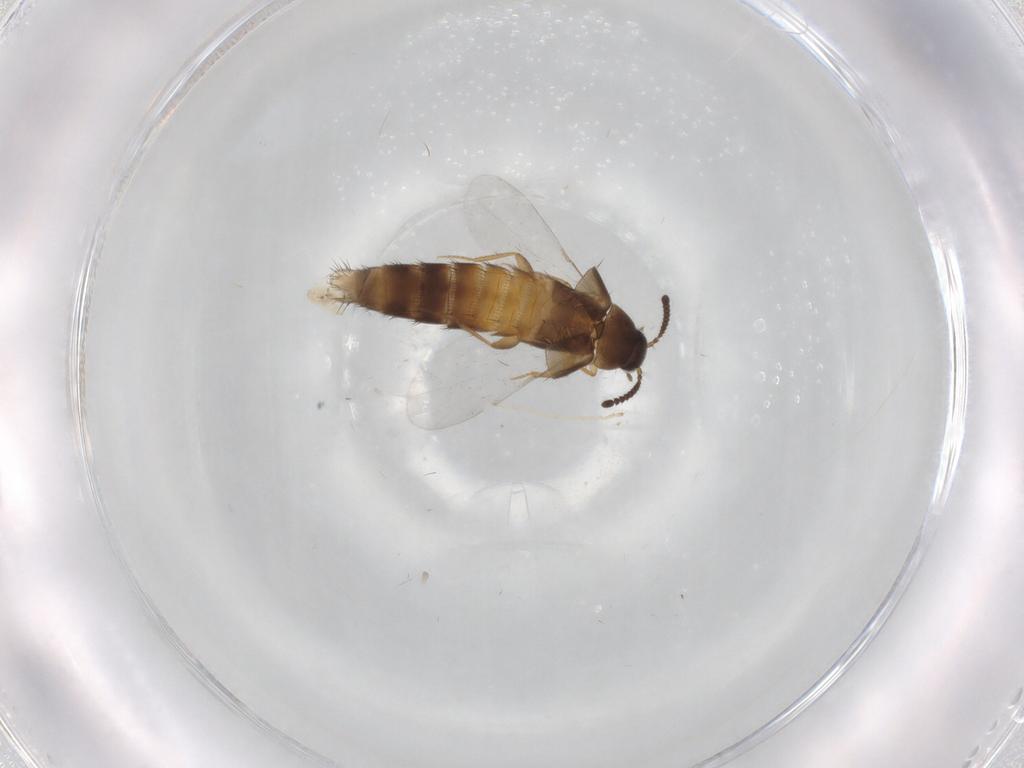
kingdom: Animalia
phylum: Arthropoda
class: Insecta
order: Coleoptera
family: Staphylinidae
